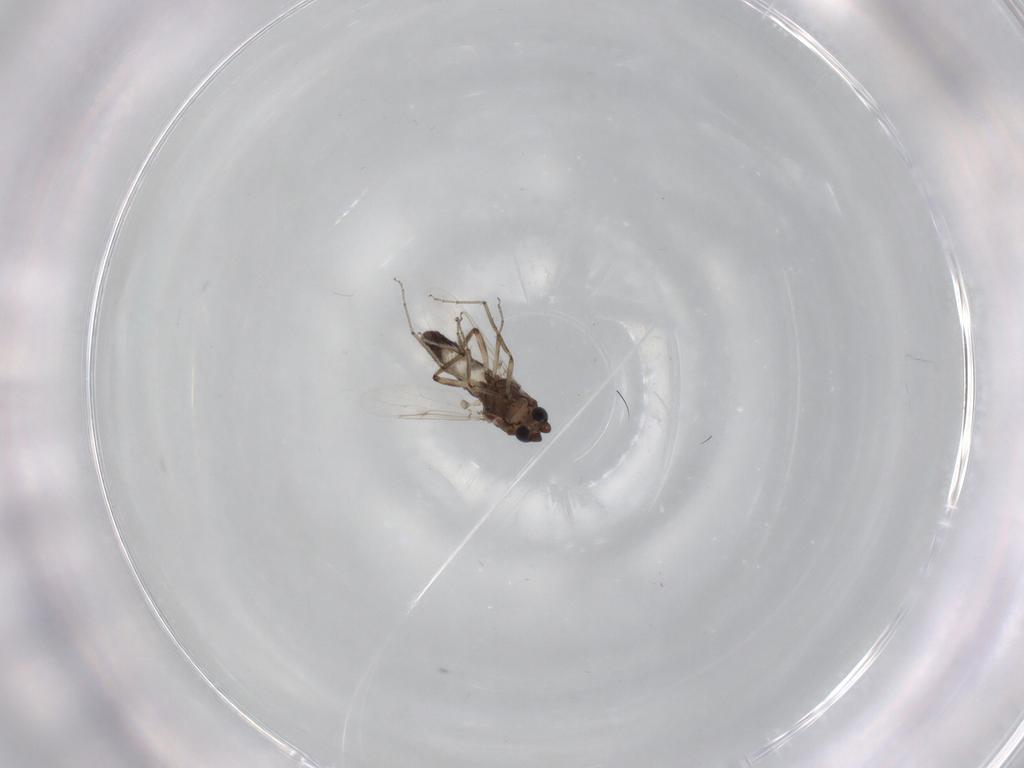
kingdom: Animalia
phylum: Arthropoda
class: Insecta
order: Diptera
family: Ceratopogonidae
